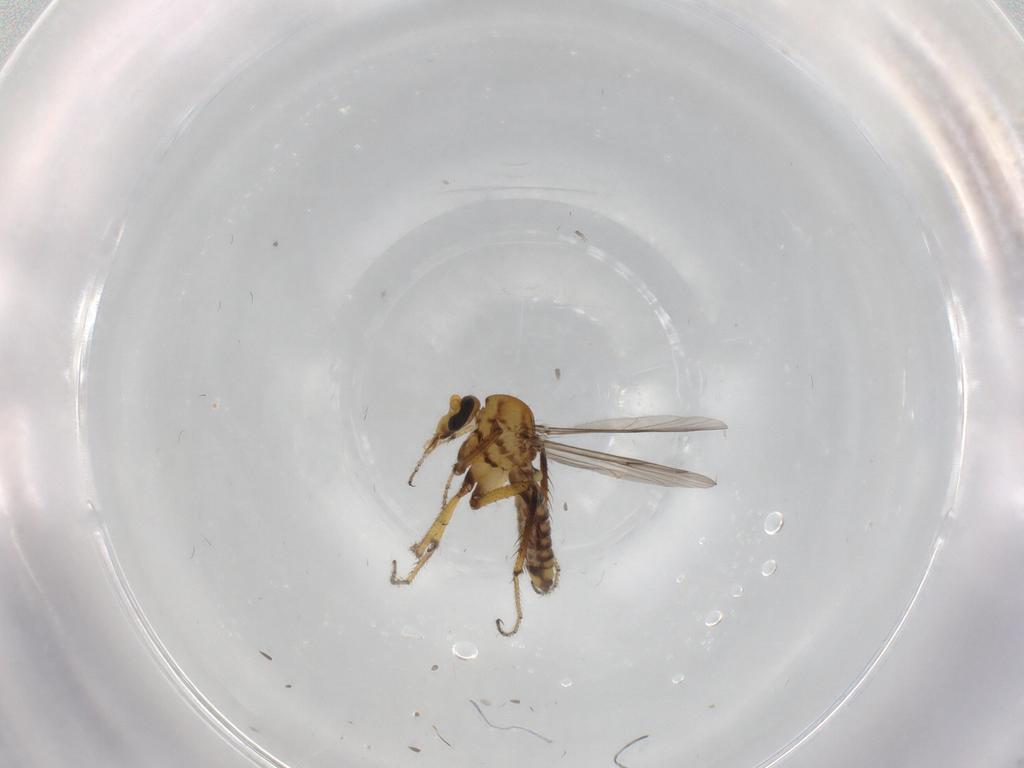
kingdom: Animalia
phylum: Arthropoda
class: Insecta
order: Diptera
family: Ceratopogonidae
